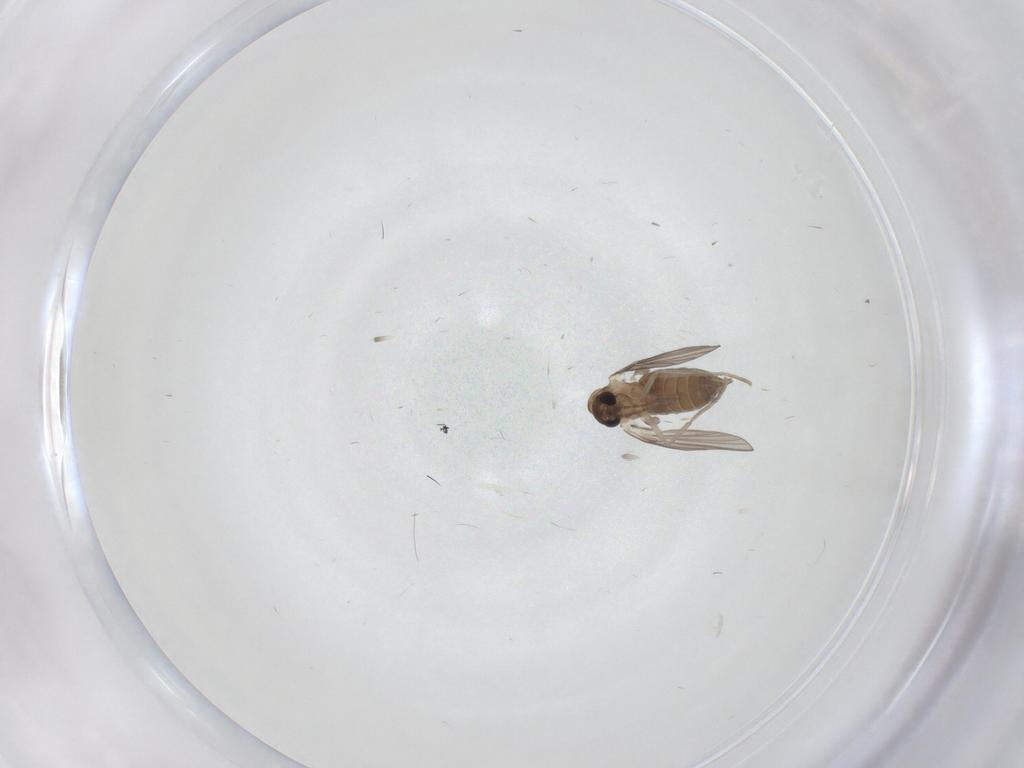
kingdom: Animalia
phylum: Arthropoda
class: Insecta
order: Diptera
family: Psychodidae
